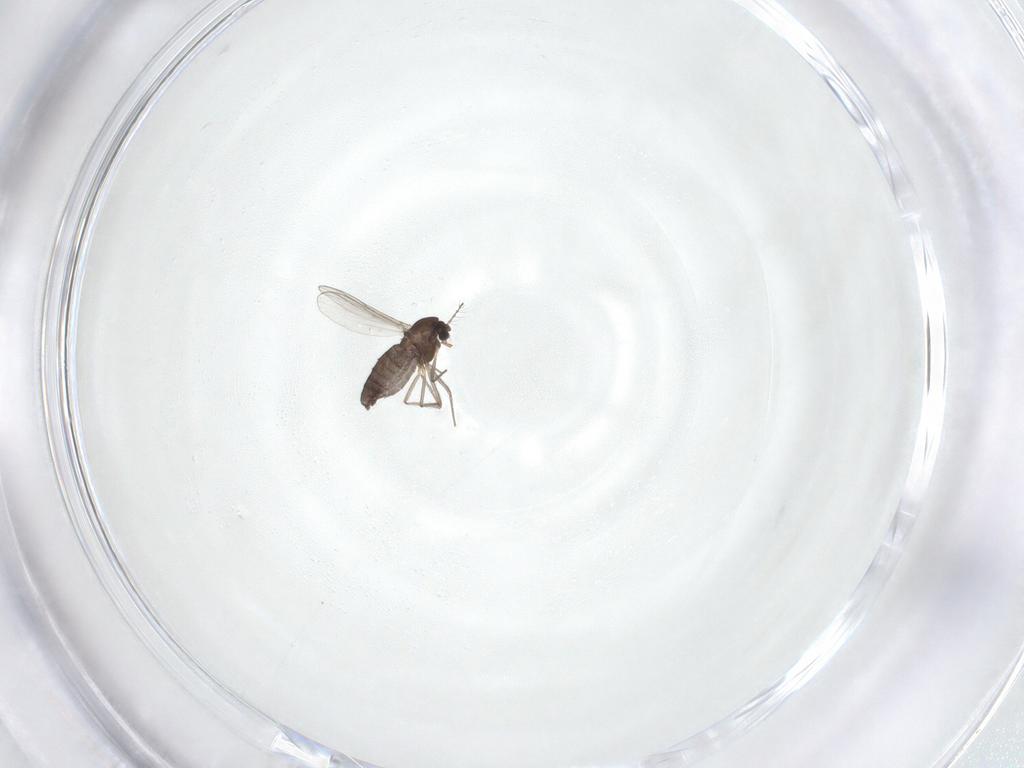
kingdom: Animalia
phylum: Arthropoda
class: Insecta
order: Diptera
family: Chironomidae
